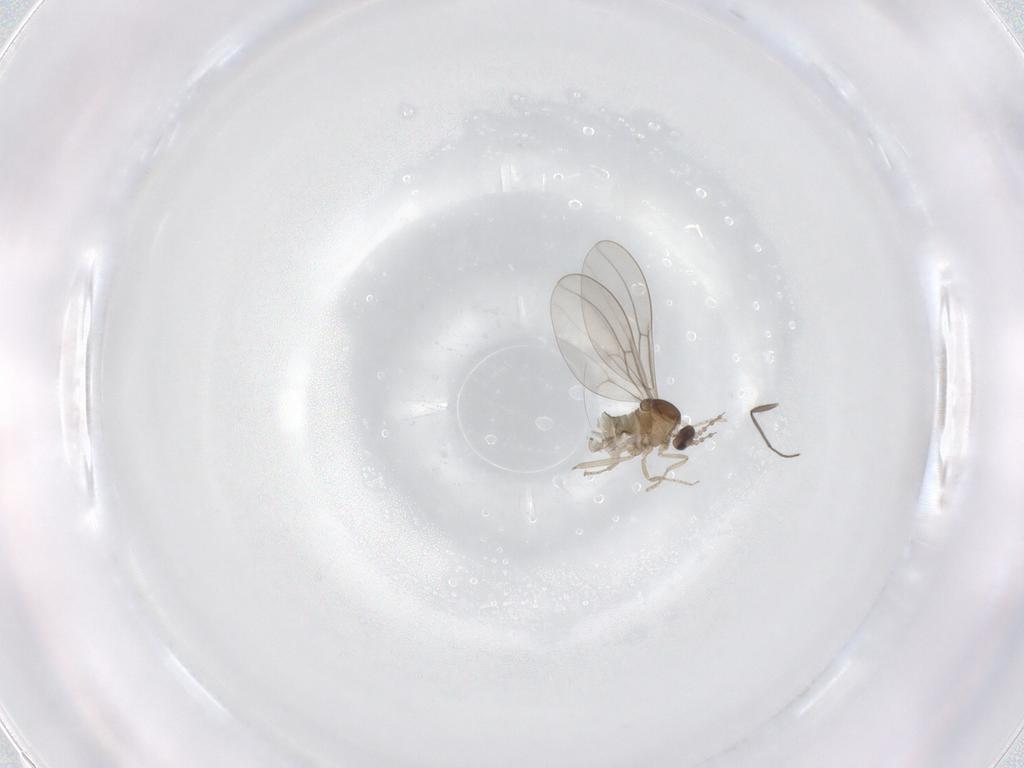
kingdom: Animalia
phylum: Arthropoda
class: Insecta
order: Diptera
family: Chironomidae
